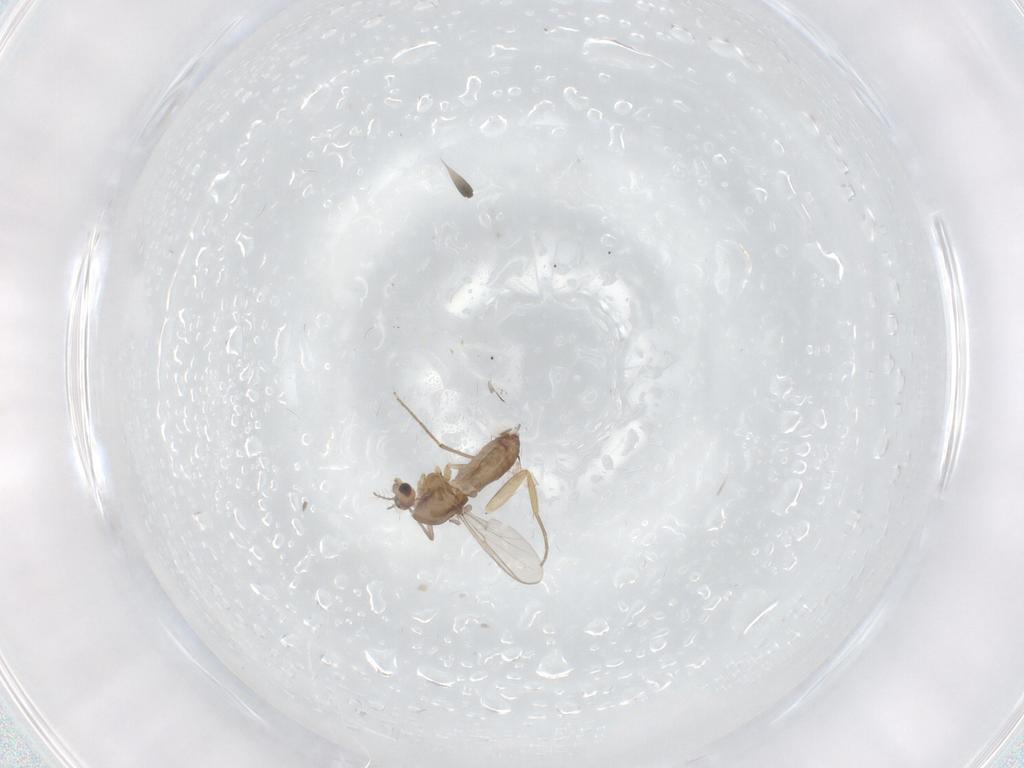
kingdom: Animalia
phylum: Arthropoda
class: Insecta
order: Diptera
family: Chironomidae
